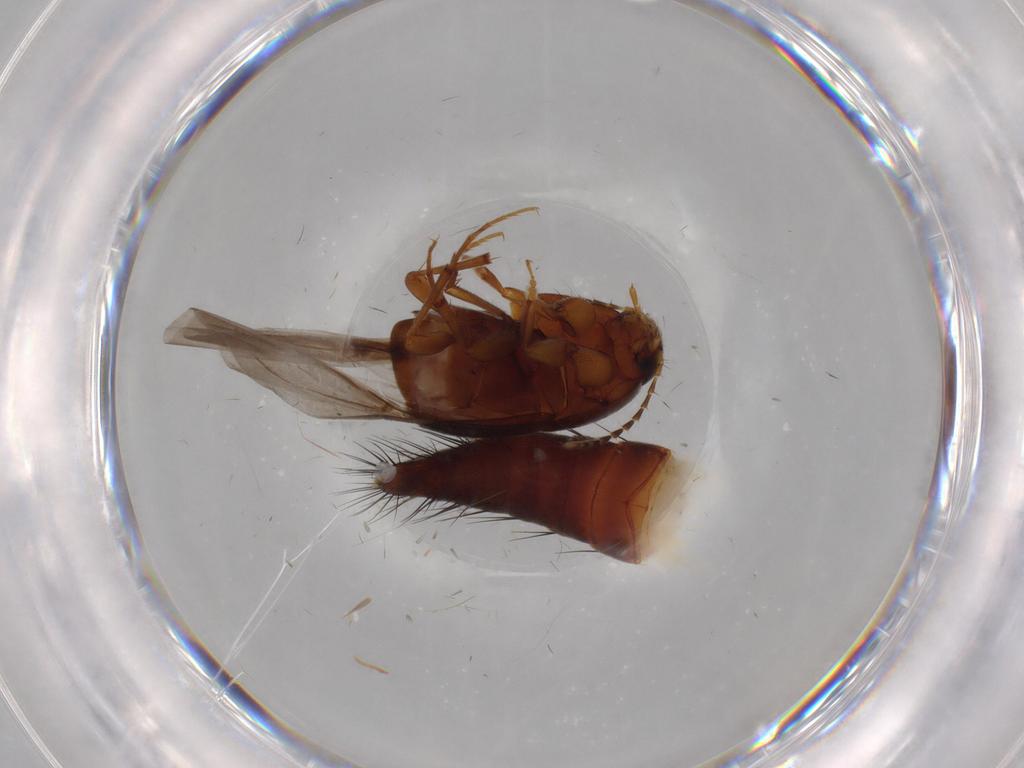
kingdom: Animalia
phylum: Arthropoda
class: Insecta
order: Coleoptera
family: Staphylinidae
